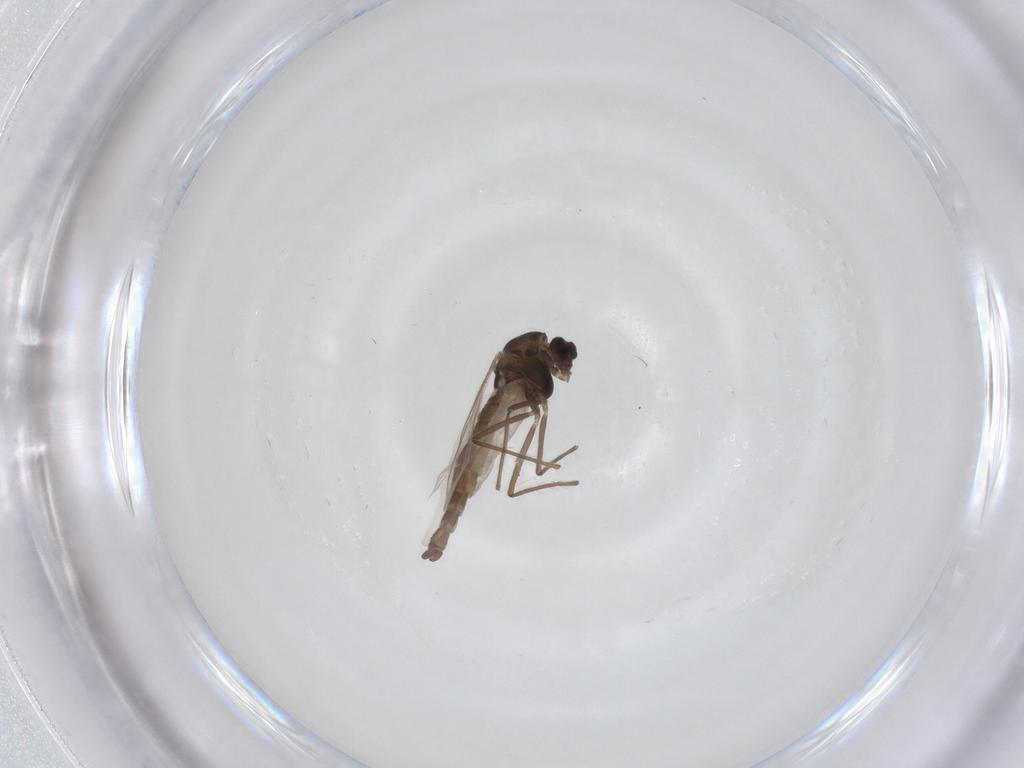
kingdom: Animalia
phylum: Arthropoda
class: Insecta
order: Diptera
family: Chironomidae
